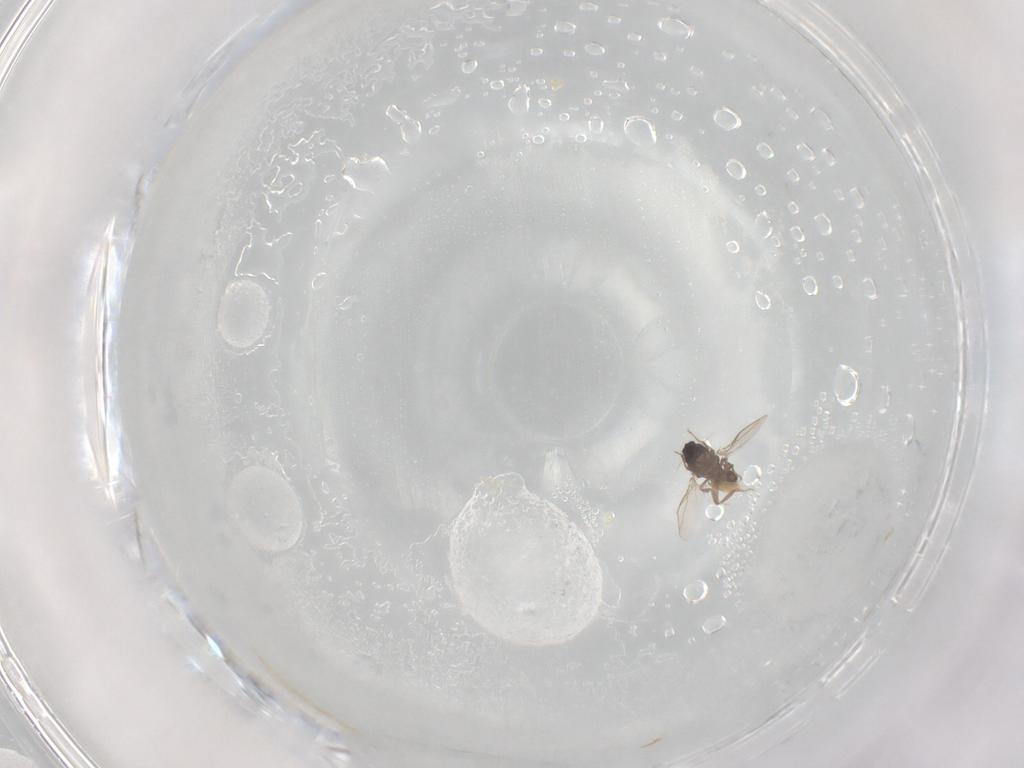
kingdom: Animalia
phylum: Arthropoda
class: Insecta
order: Diptera
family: Sphaeroceridae
